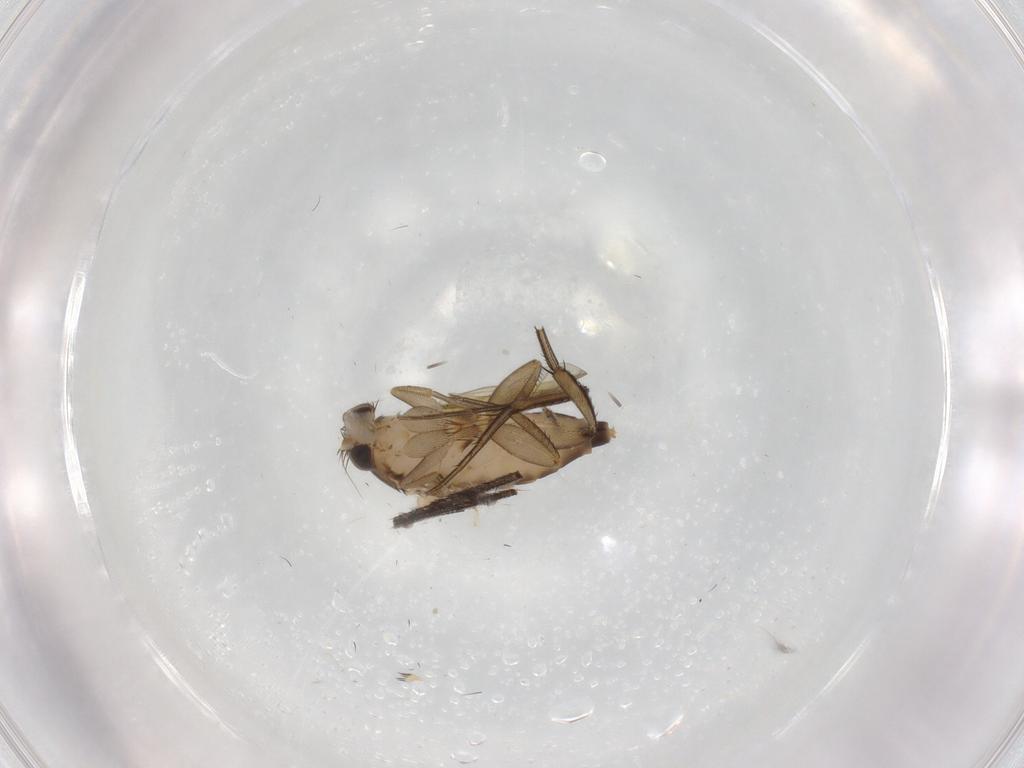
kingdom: Animalia
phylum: Arthropoda
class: Insecta
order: Diptera
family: Phoridae
